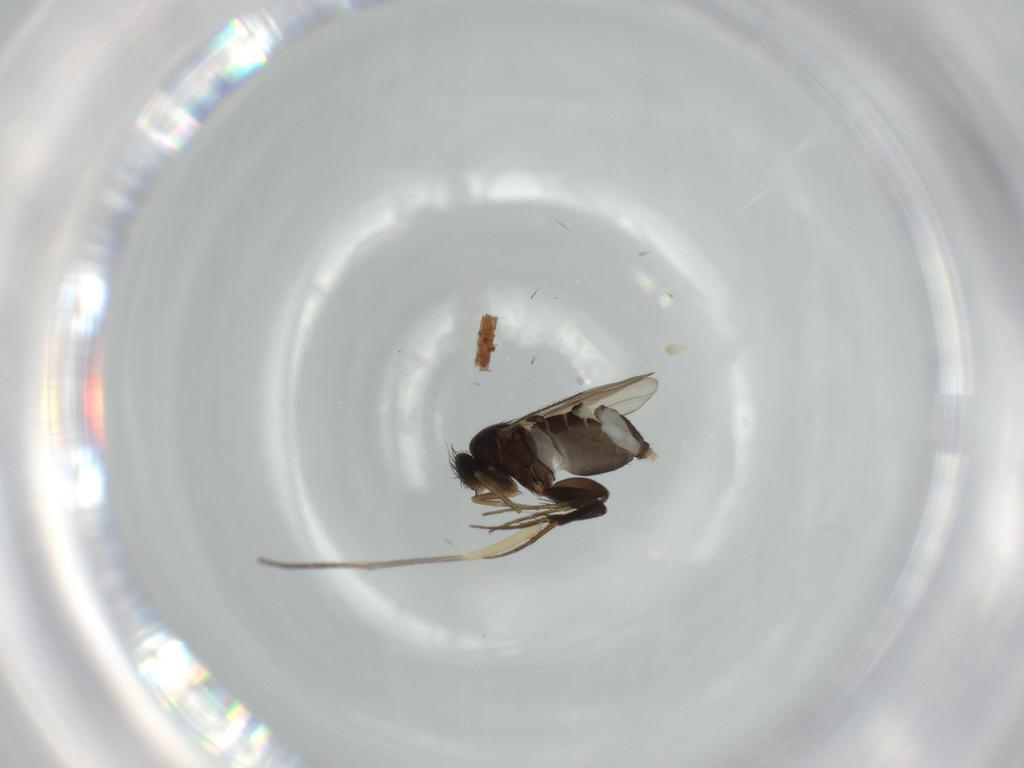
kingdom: Animalia
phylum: Arthropoda
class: Insecta
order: Diptera
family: Phoridae
